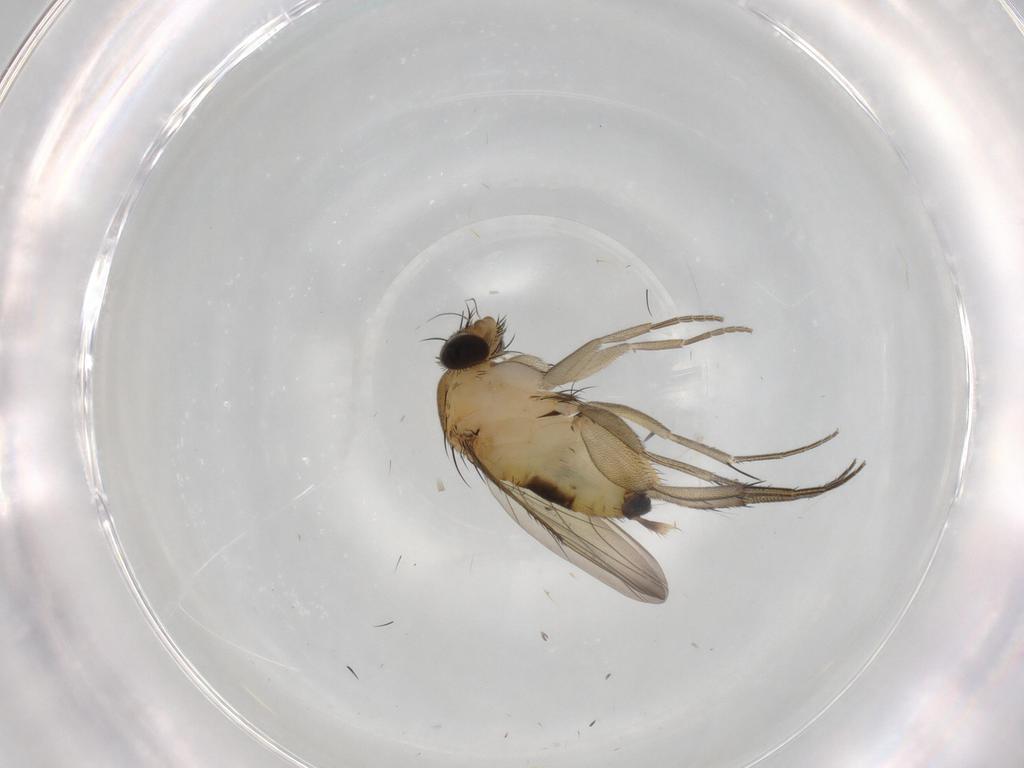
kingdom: Animalia
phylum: Arthropoda
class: Insecta
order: Diptera
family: Phoridae
